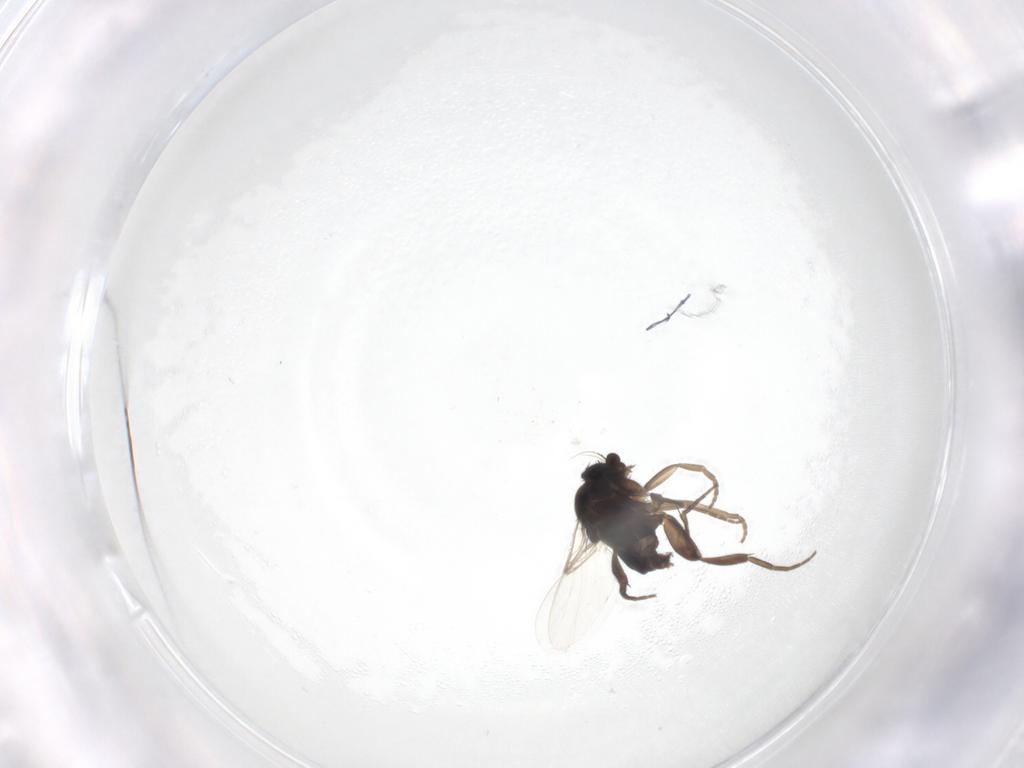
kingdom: Animalia
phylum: Arthropoda
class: Insecta
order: Diptera
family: Phoridae
